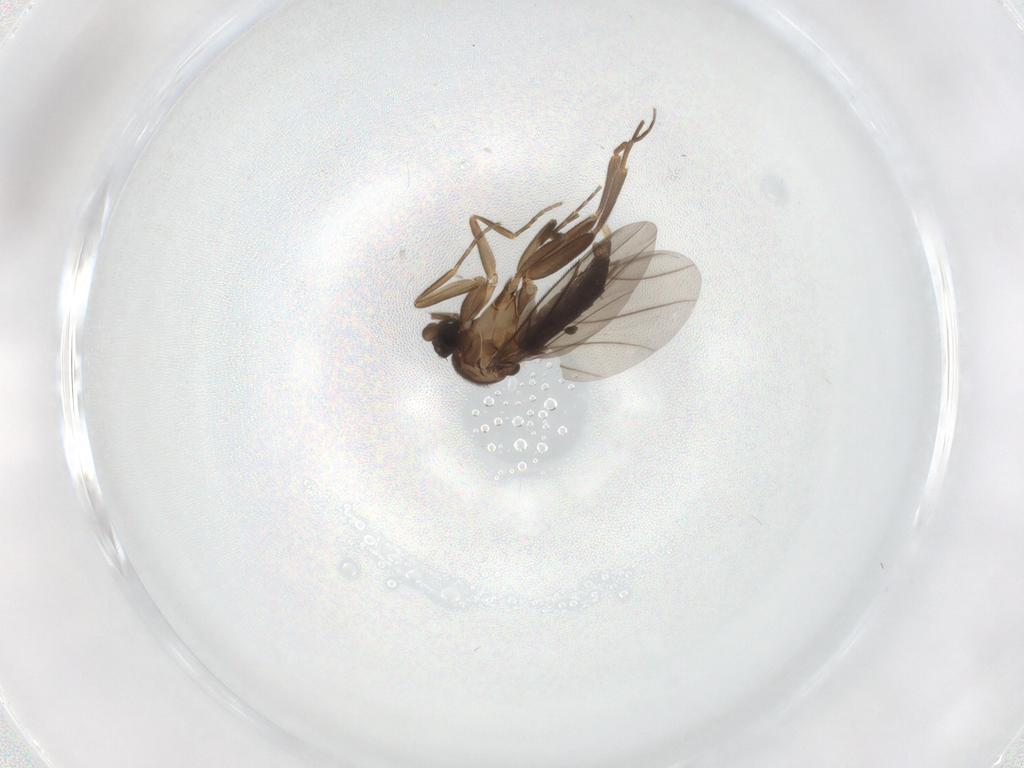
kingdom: Animalia
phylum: Arthropoda
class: Insecta
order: Diptera
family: Cecidomyiidae
